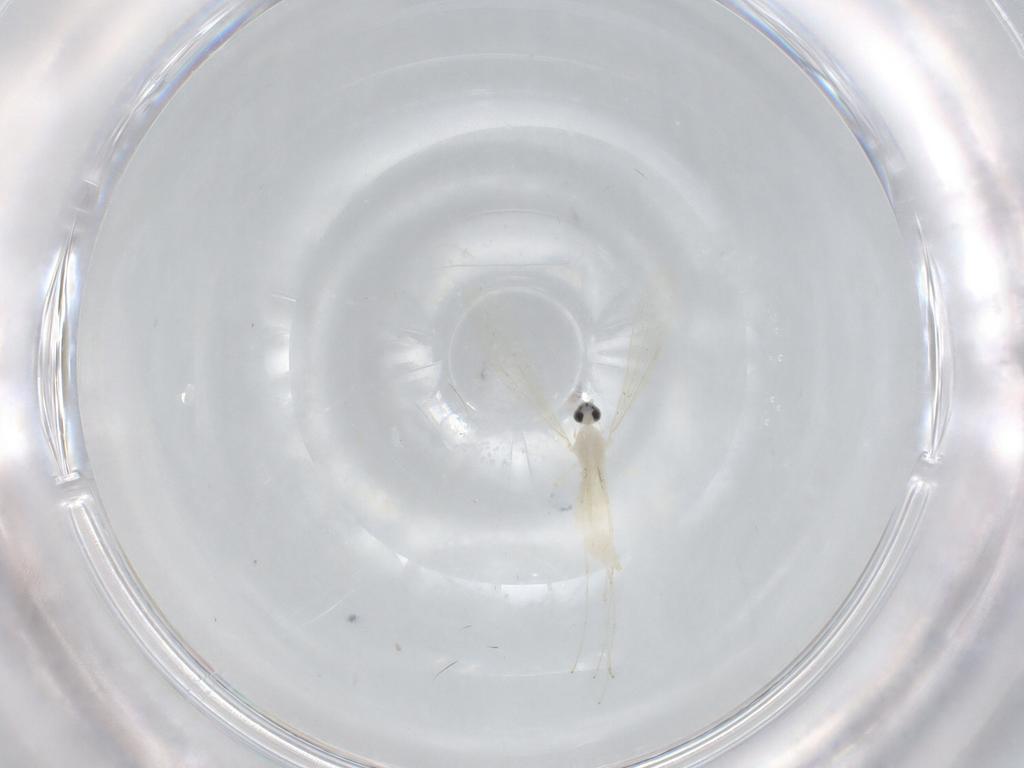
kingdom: Animalia
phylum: Arthropoda
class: Insecta
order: Diptera
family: Cecidomyiidae
